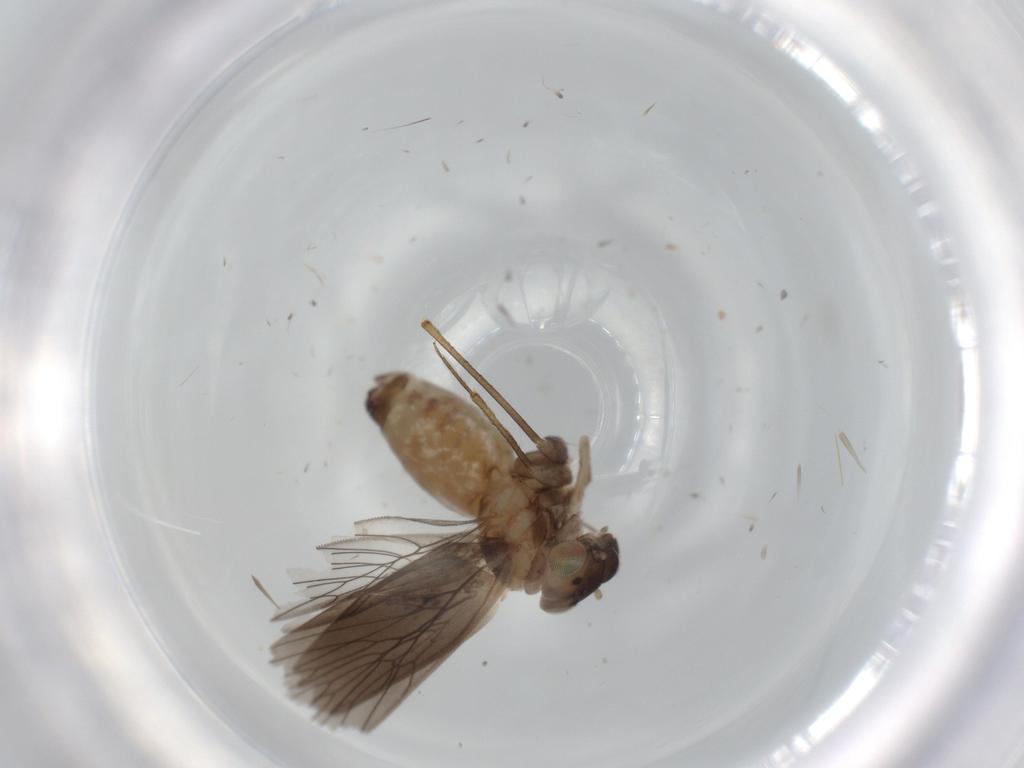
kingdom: Animalia
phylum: Arthropoda
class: Insecta
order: Psocodea
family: Lepidopsocidae
